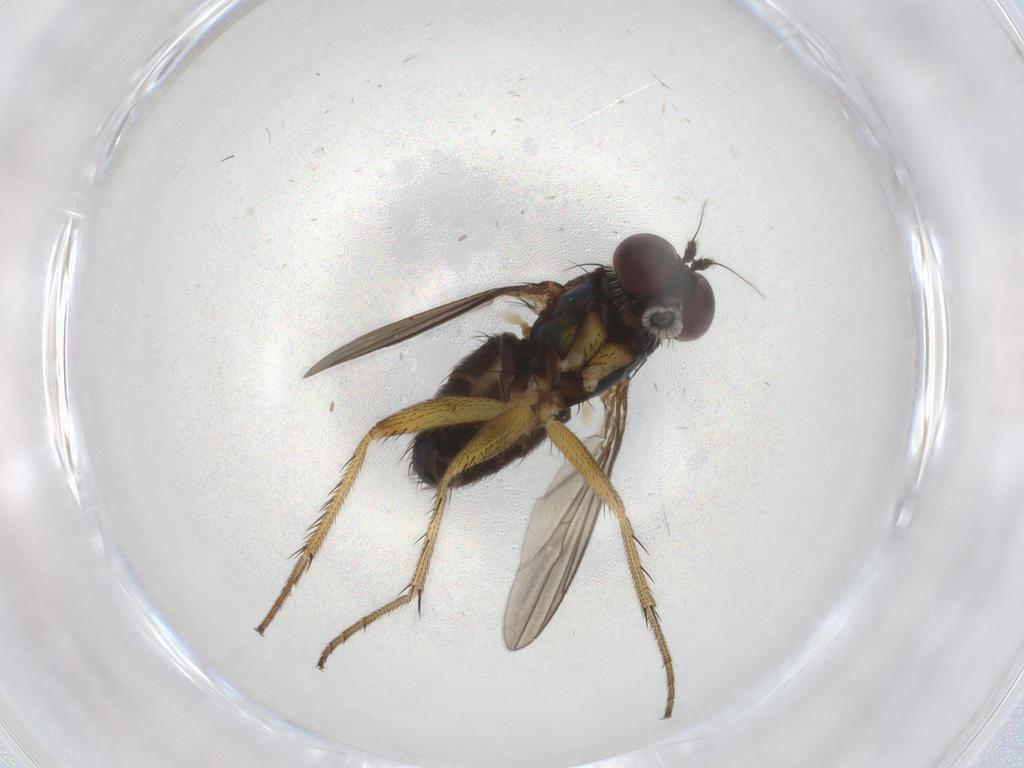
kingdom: Animalia
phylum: Arthropoda
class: Insecta
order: Diptera
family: Dolichopodidae
